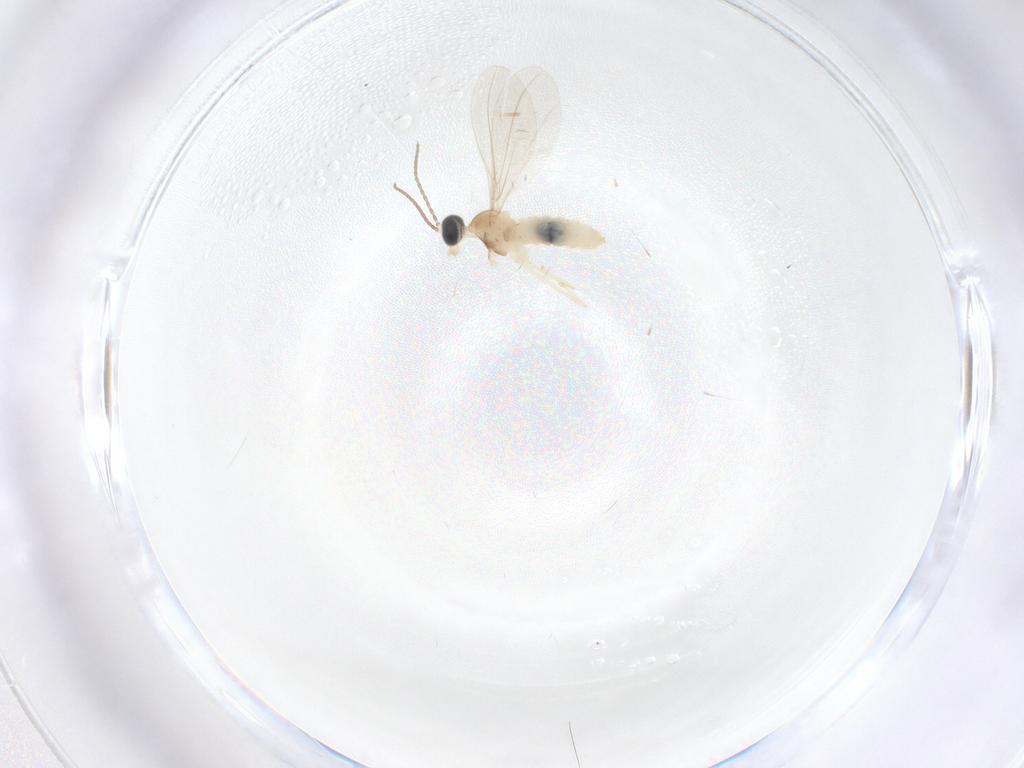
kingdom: Animalia
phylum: Arthropoda
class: Insecta
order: Diptera
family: Cecidomyiidae
